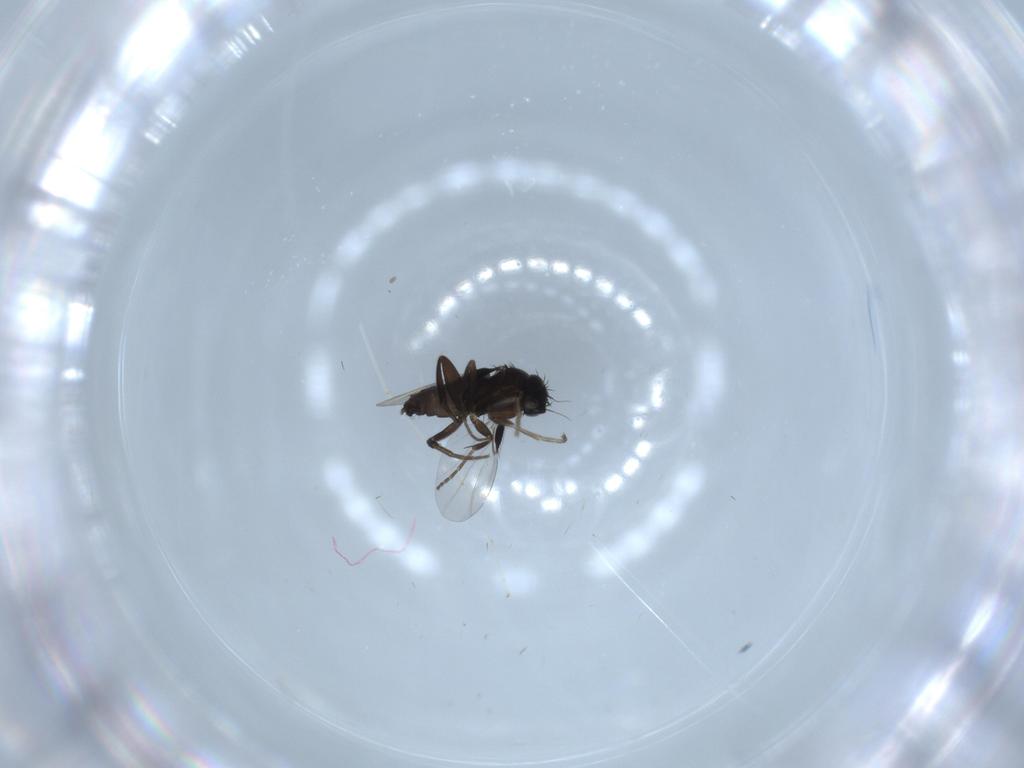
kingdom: Animalia
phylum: Arthropoda
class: Insecta
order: Diptera
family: Phoridae
